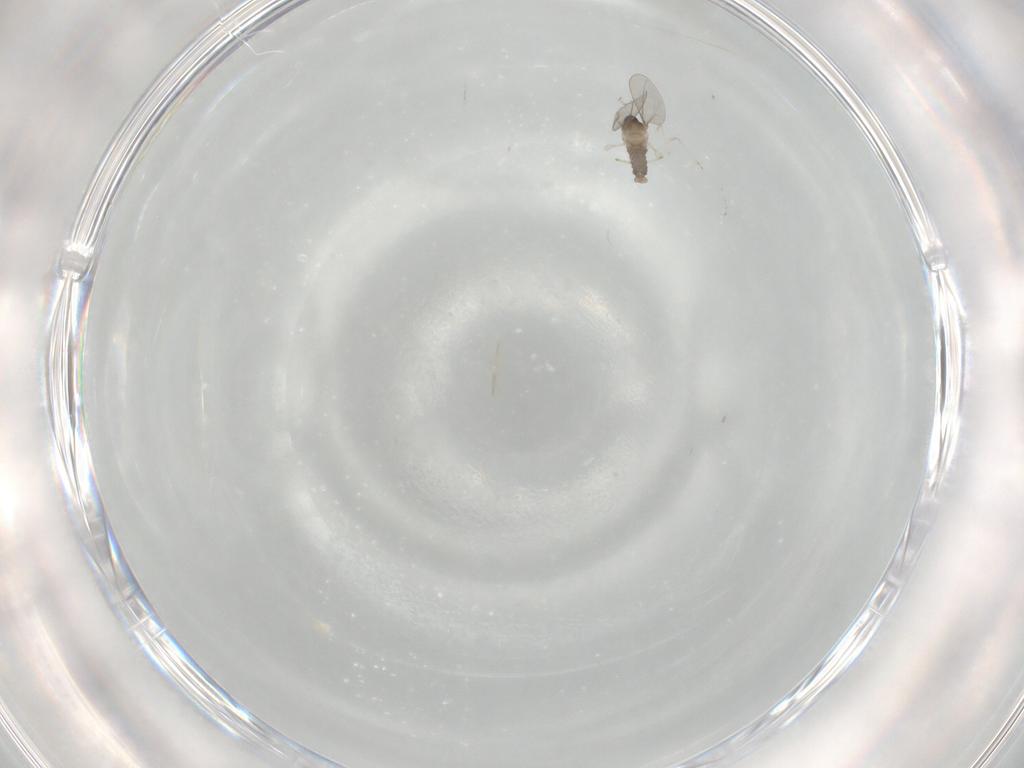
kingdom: Animalia
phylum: Arthropoda
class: Insecta
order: Diptera
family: Cecidomyiidae
